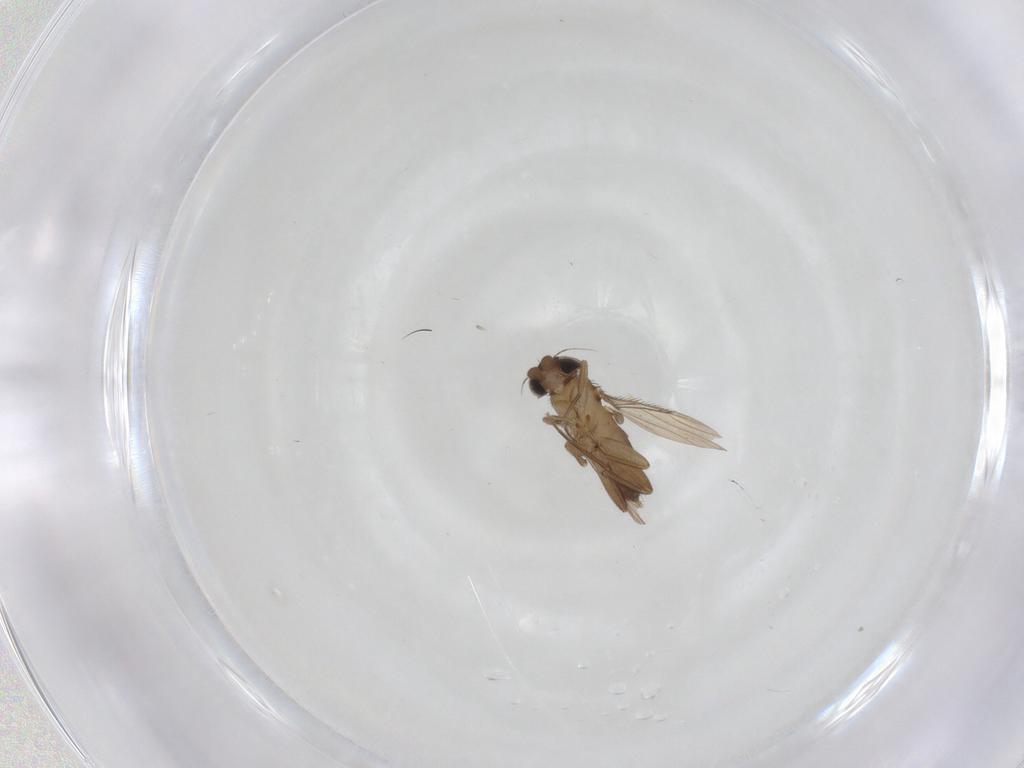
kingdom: Animalia
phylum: Arthropoda
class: Insecta
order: Diptera
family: Phoridae
